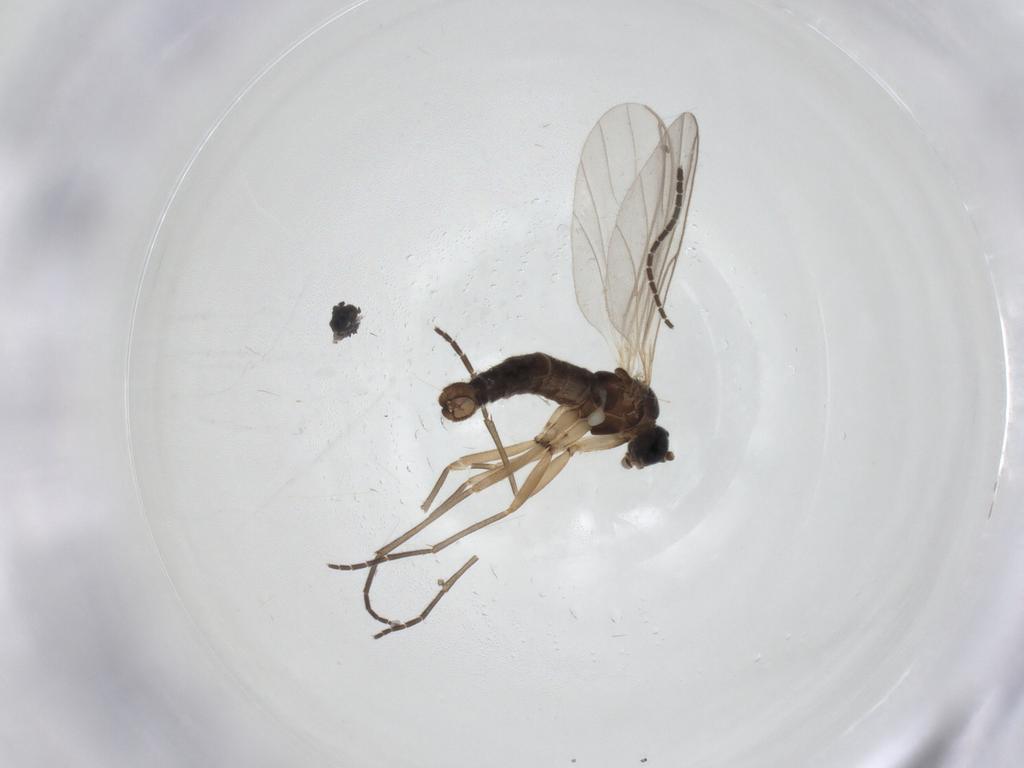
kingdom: Animalia
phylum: Arthropoda
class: Insecta
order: Diptera
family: Sciaridae
